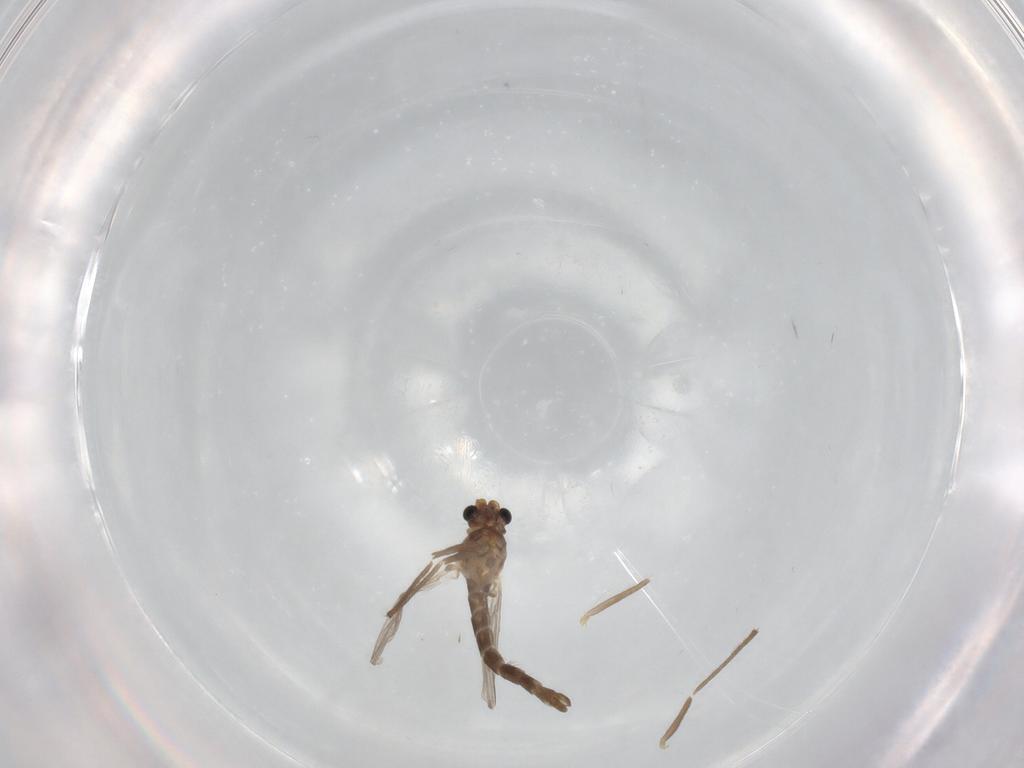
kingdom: Animalia
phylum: Arthropoda
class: Insecta
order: Diptera
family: Chironomidae
